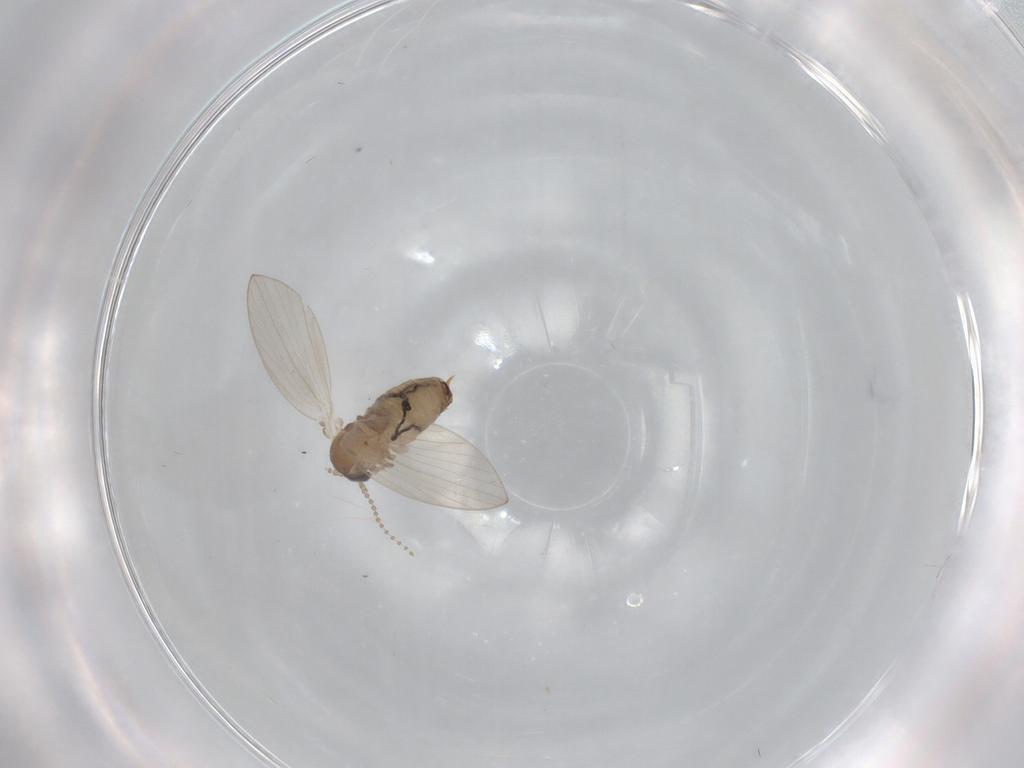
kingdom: Animalia
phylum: Arthropoda
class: Insecta
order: Diptera
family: Psychodidae
